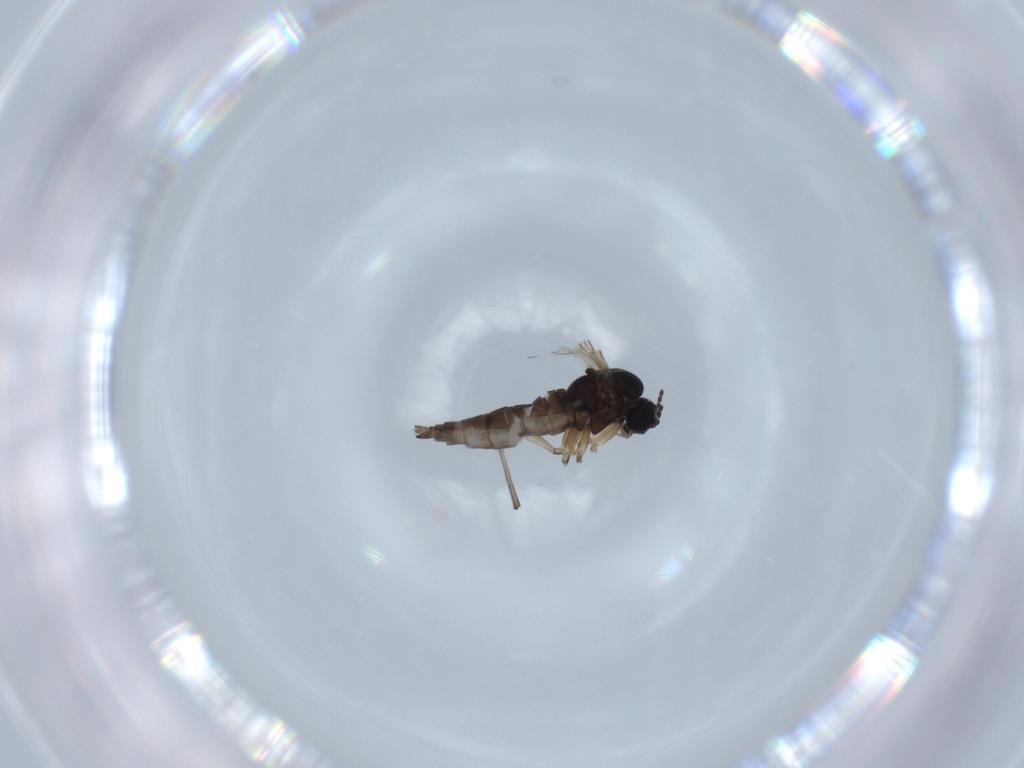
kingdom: Animalia
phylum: Arthropoda
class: Insecta
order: Diptera
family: Sciaridae
